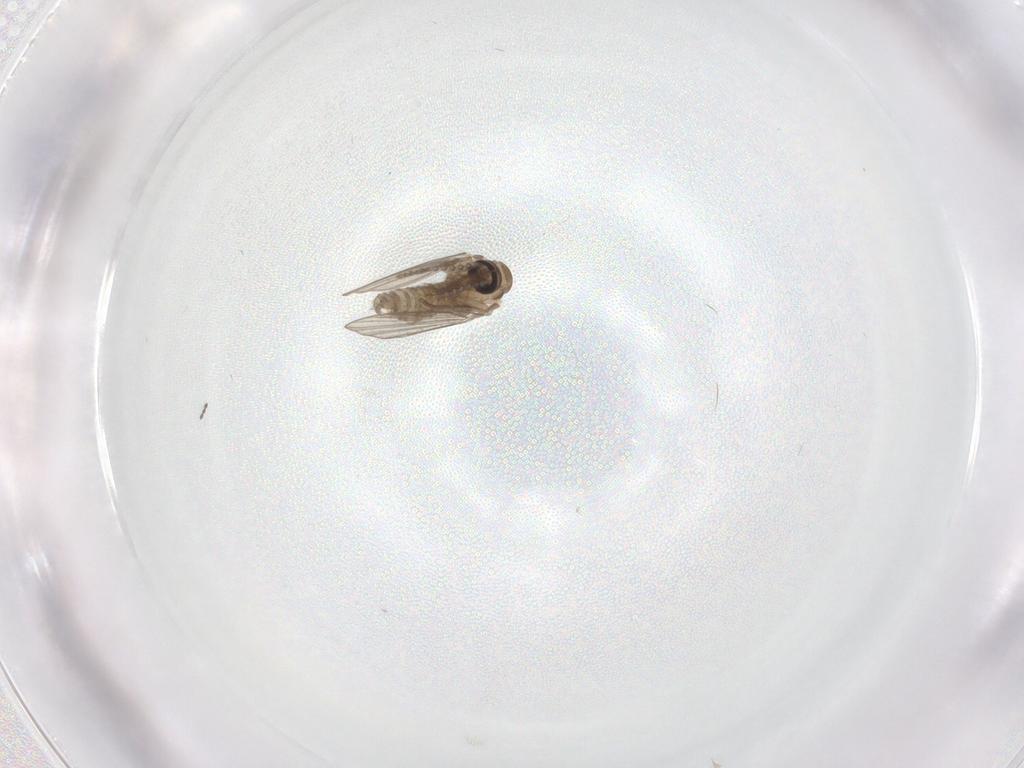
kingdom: Animalia
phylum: Arthropoda
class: Insecta
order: Diptera
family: Psychodidae
